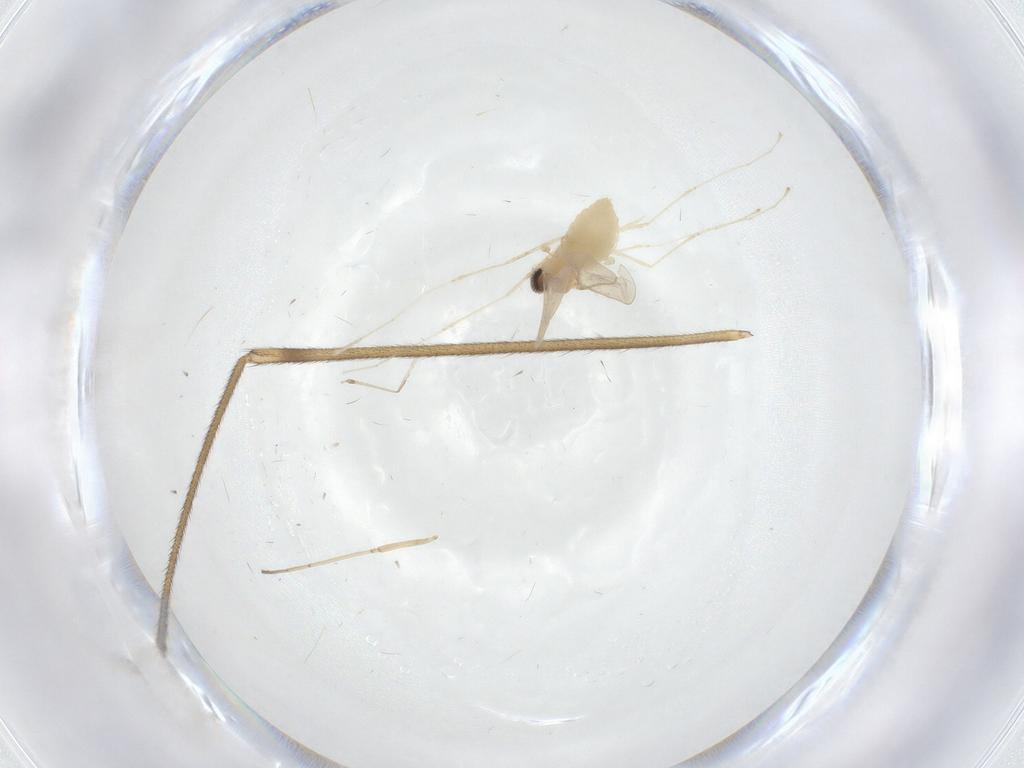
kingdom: Animalia
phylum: Arthropoda
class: Insecta
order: Diptera
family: Limoniidae
